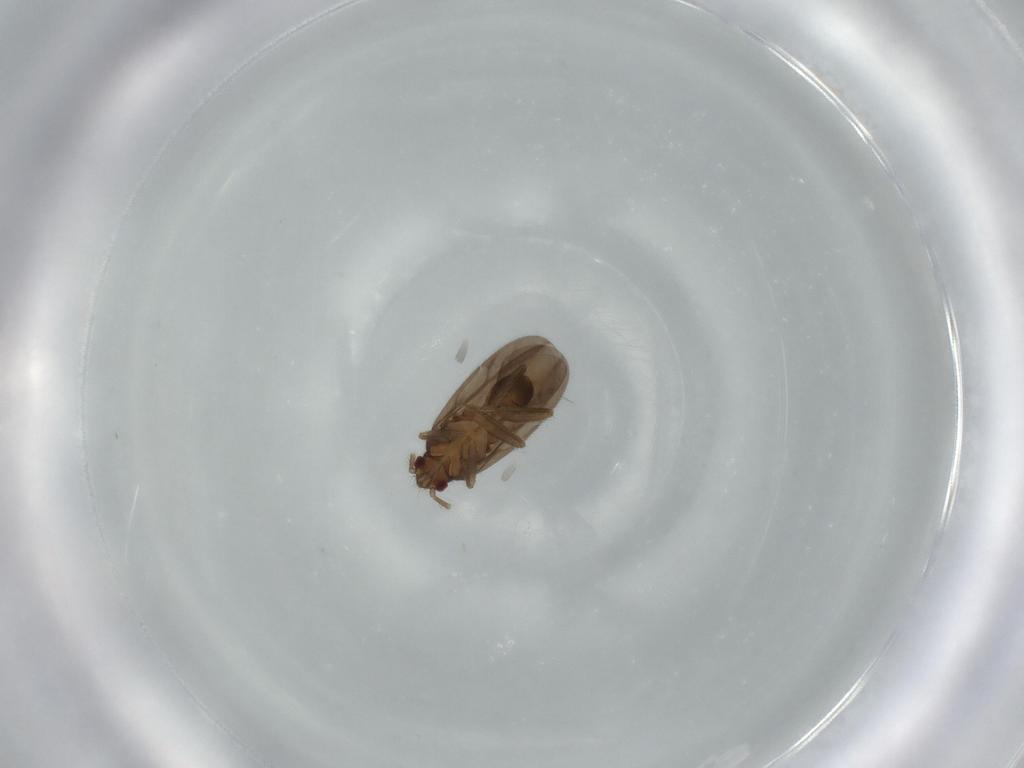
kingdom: Animalia
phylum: Arthropoda
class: Insecta
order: Hemiptera
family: Ceratocombidae
